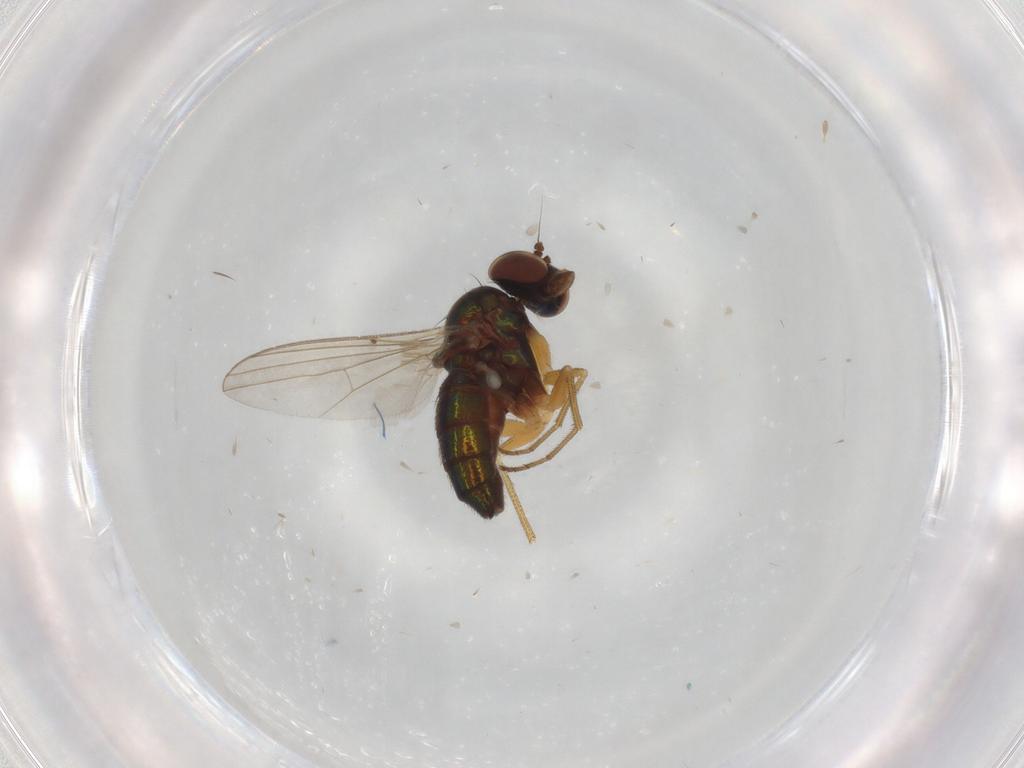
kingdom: Animalia
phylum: Arthropoda
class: Insecta
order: Diptera
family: Dolichopodidae
